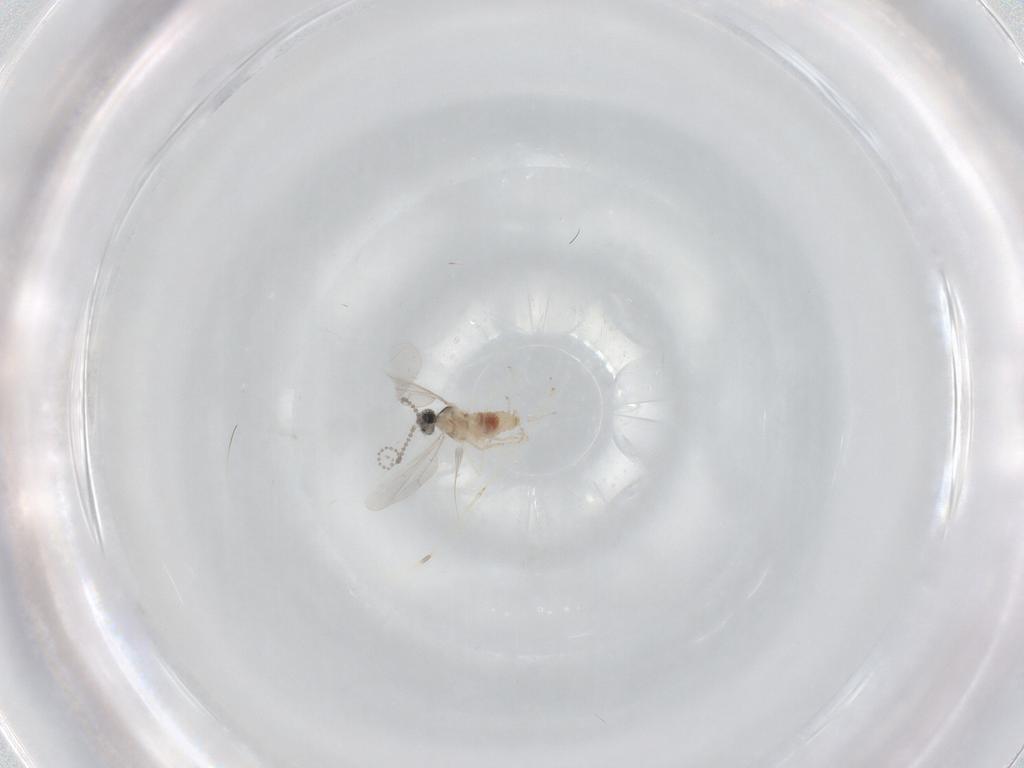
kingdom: Animalia
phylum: Arthropoda
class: Insecta
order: Diptera
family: Cecidomyiidae
